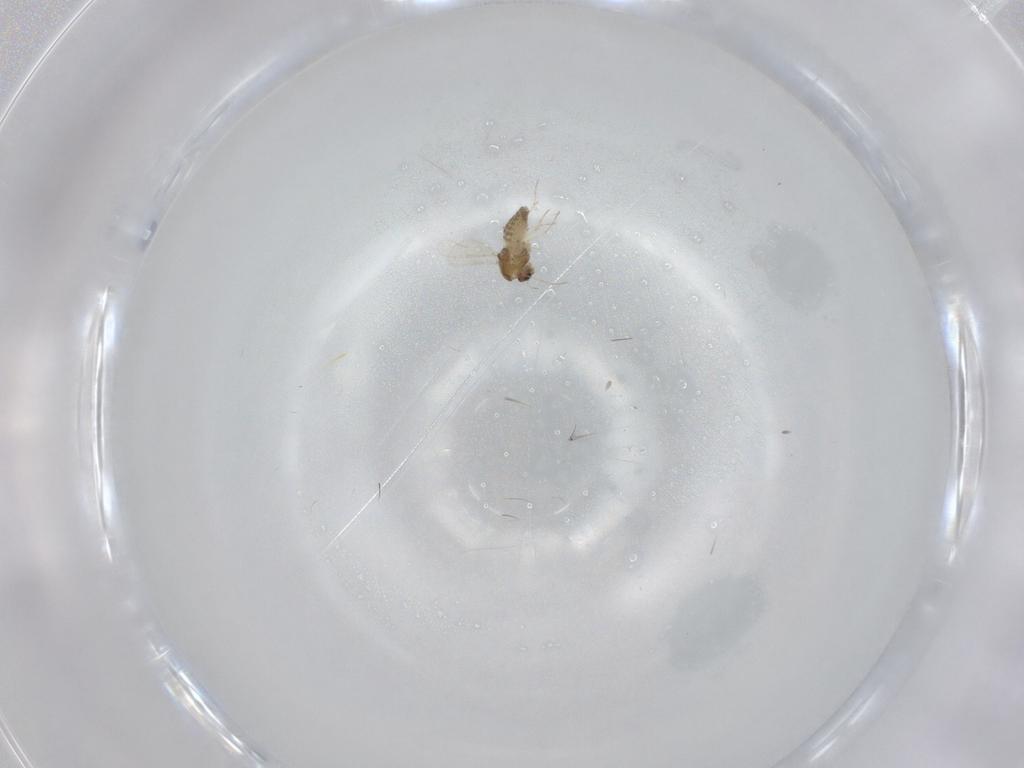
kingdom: Animalia
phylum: Arthropoda
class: Insecta
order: Diptera
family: Chironomidae
